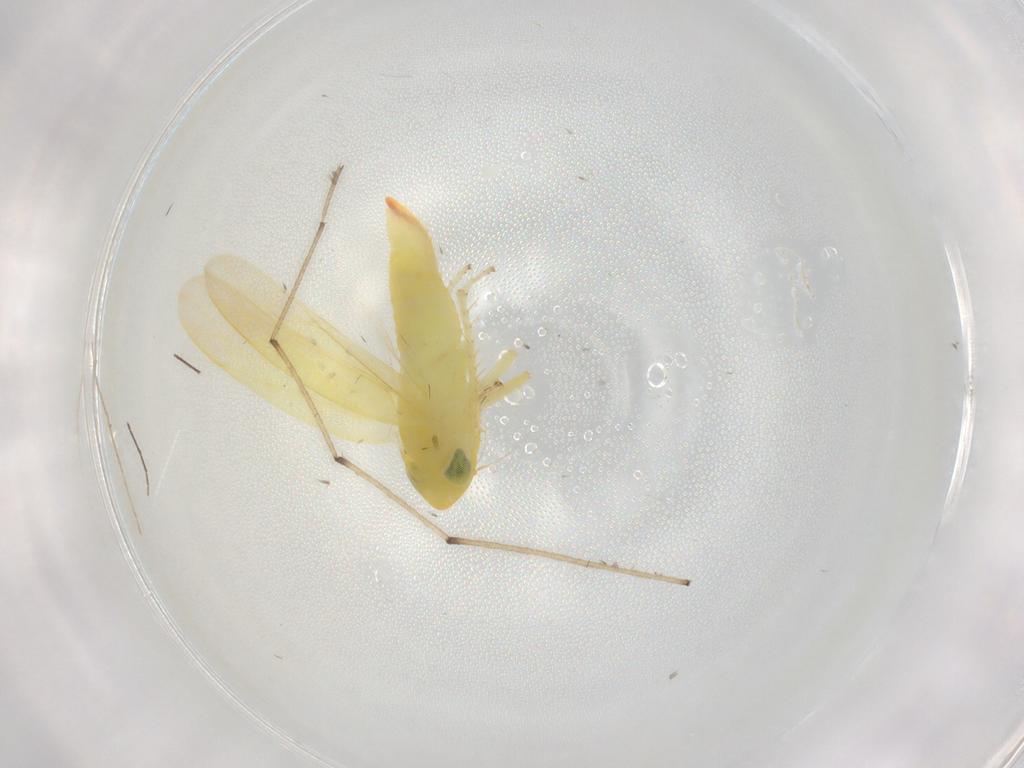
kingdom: Animalia
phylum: Arthropoda
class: Insecta
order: Hemiptera
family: Cicadellidae
